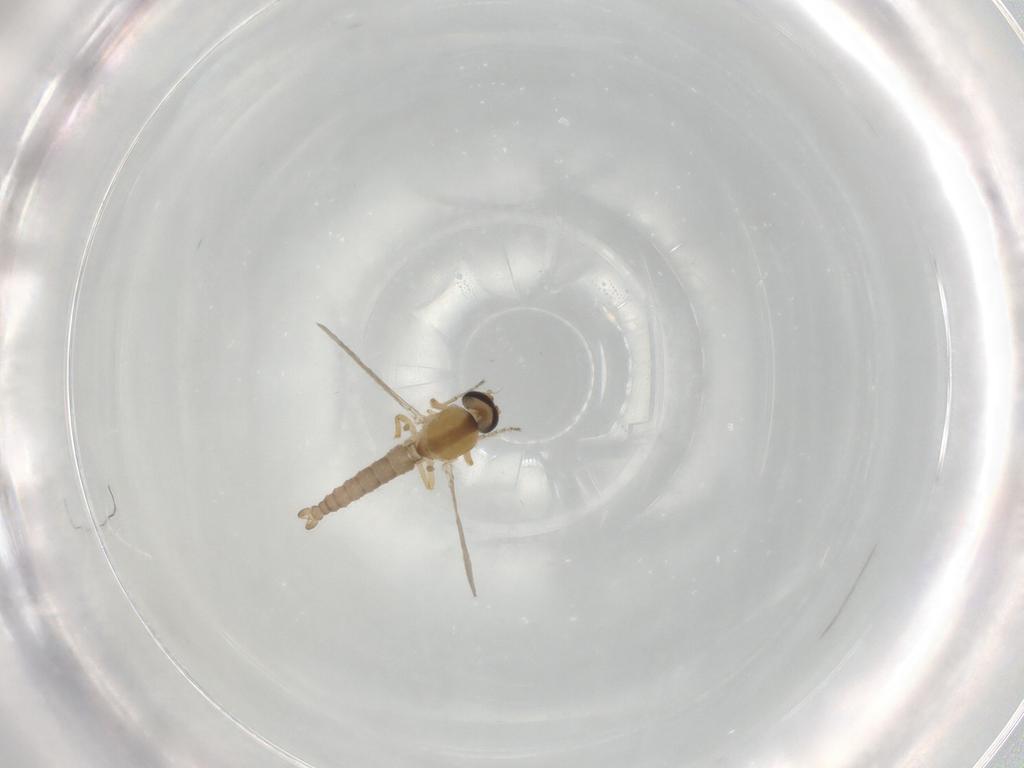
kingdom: Animalia
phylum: Arthropoda
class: Insecta
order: Diptera
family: Ceratopogonidae
